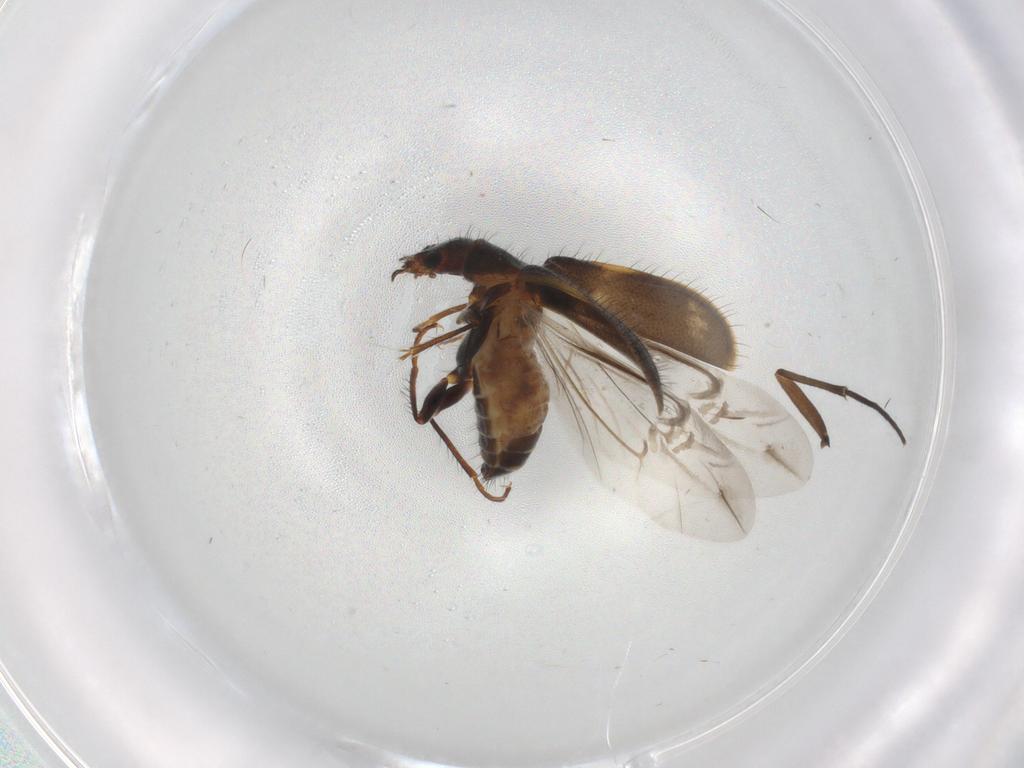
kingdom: Animalia
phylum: Arthropoda
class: Insecta
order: Coleoptera
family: Melyridae
